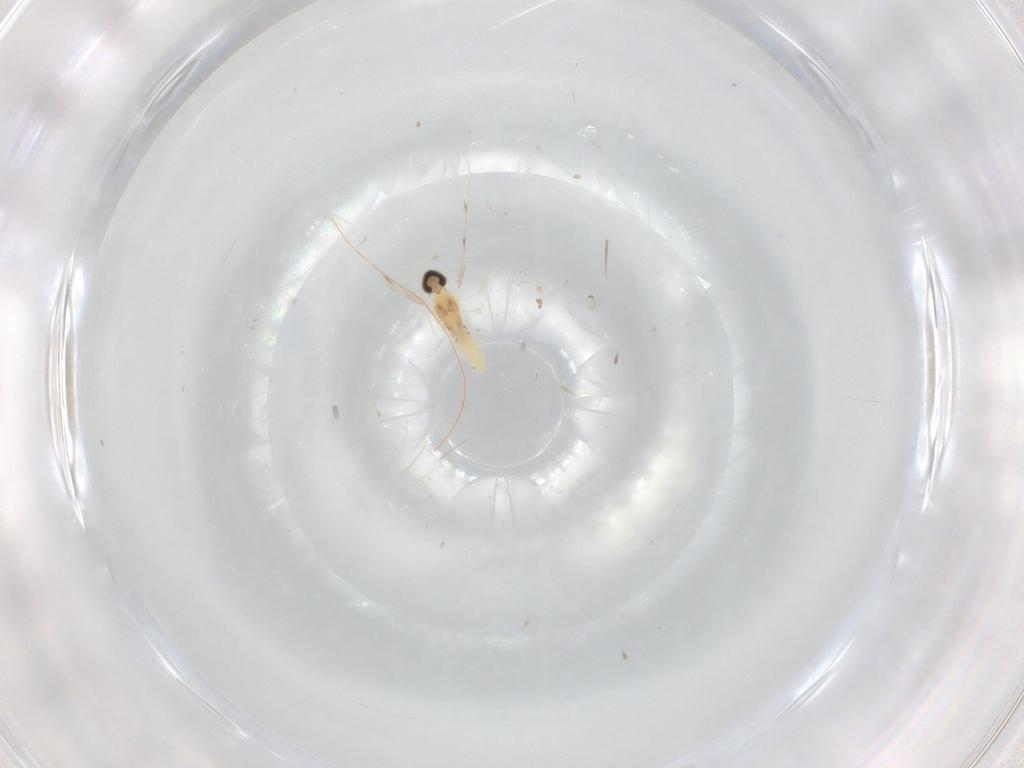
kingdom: Animalia
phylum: Arthropoda
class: Insecta
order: Diptera
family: Cecidomyiidae
